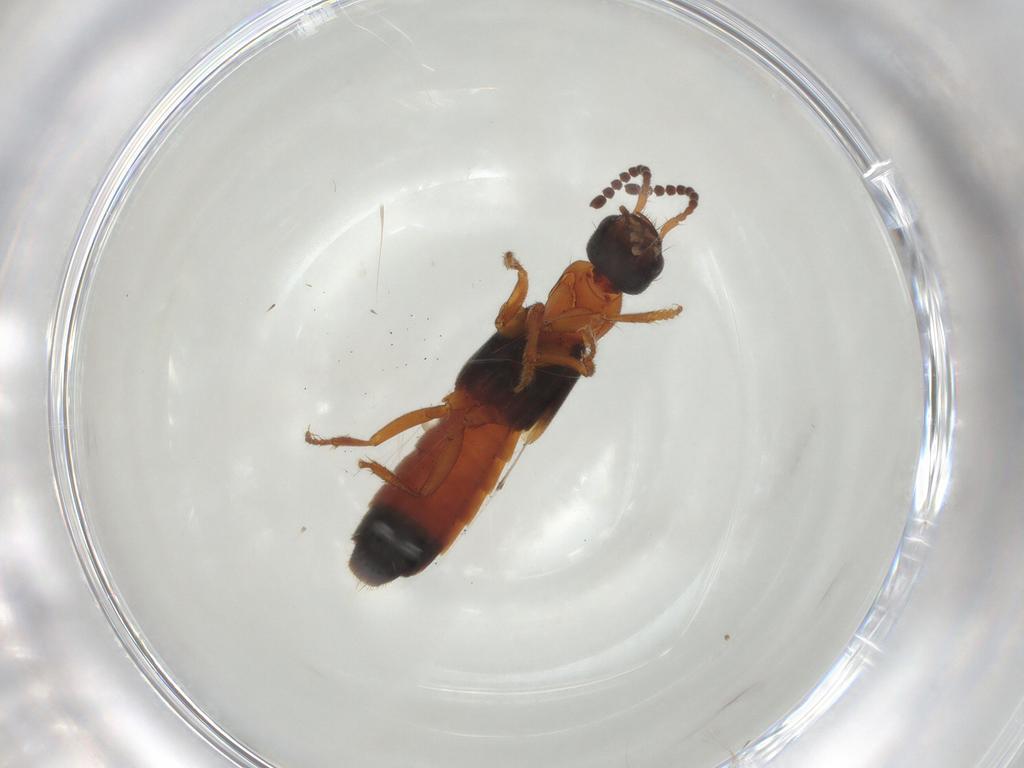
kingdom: Animalia
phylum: Arthropoda
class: Insecta
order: Coleoptera
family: Staphylinidae
